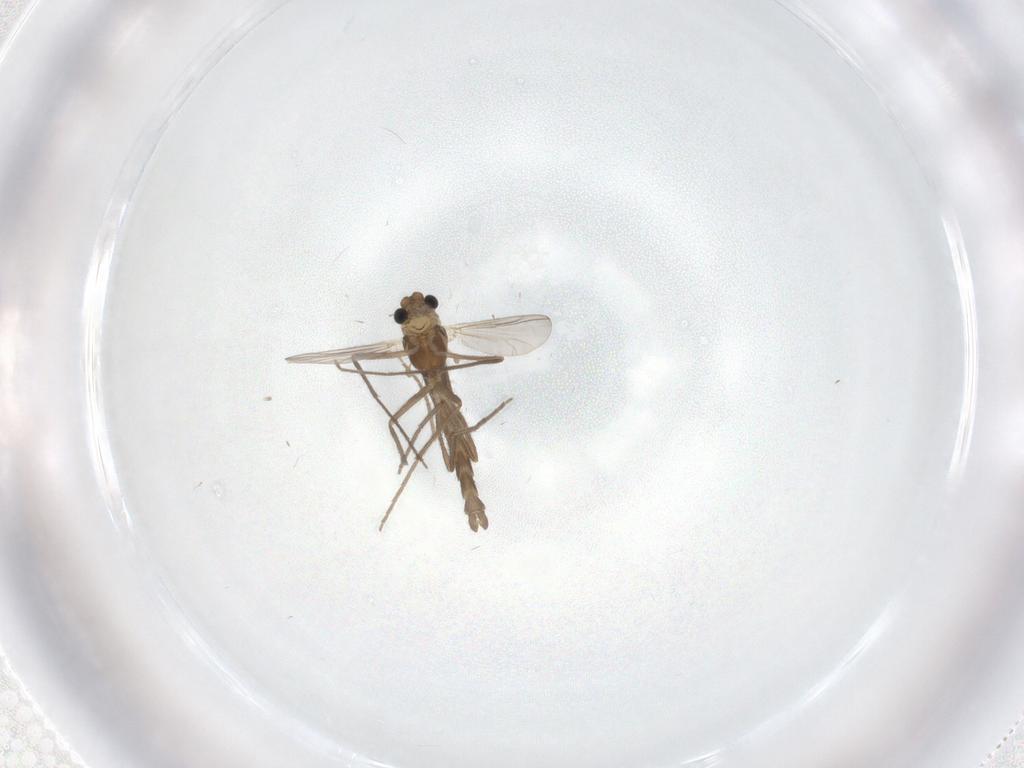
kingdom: Animalia
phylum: Arthropoda
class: Insecta
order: Diptera
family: Chironomidae
